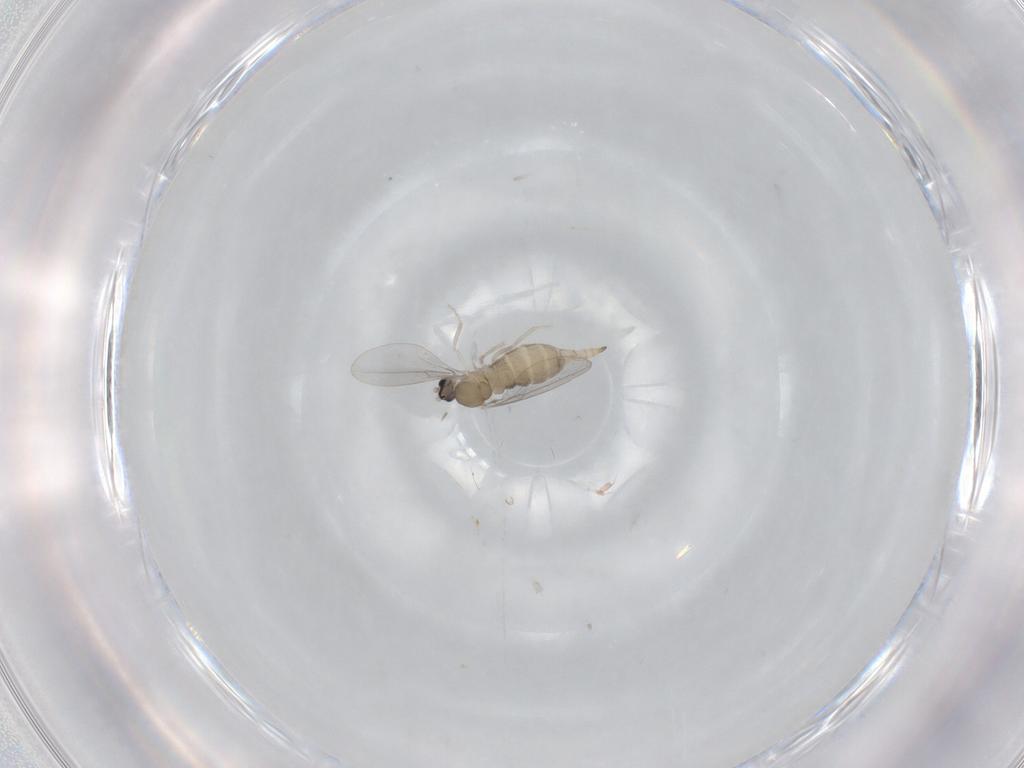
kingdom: Animalia
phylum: Arthropoda
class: Insecta
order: Diptera
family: Cecidomyiidae
